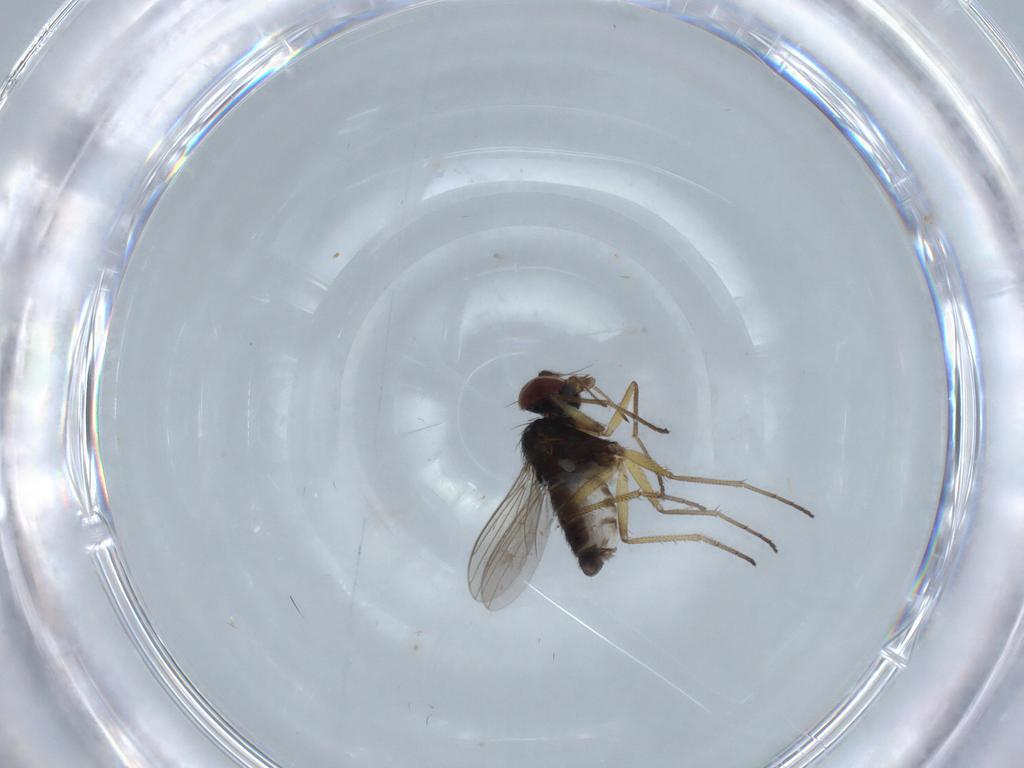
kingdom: Animalia
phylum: Arthropoda
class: Insecta
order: Diptera
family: Dolichopodidae
